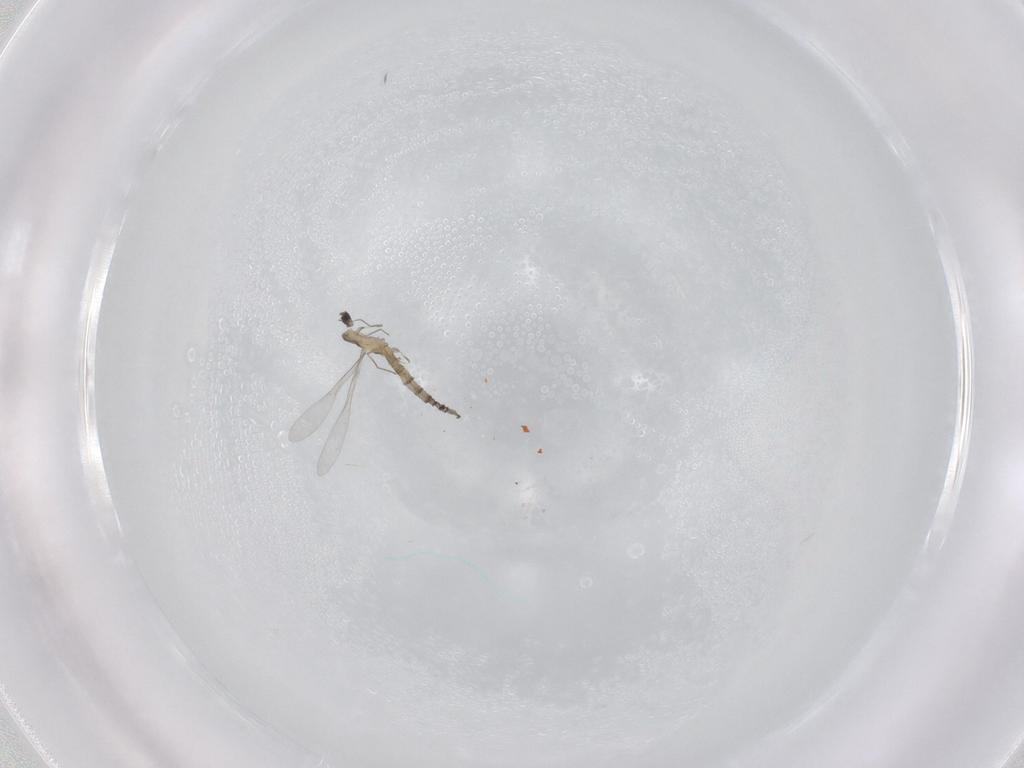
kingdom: Animalia
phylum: Arthropoda
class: Insecta
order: Diptera
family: Cecidomyiidae
